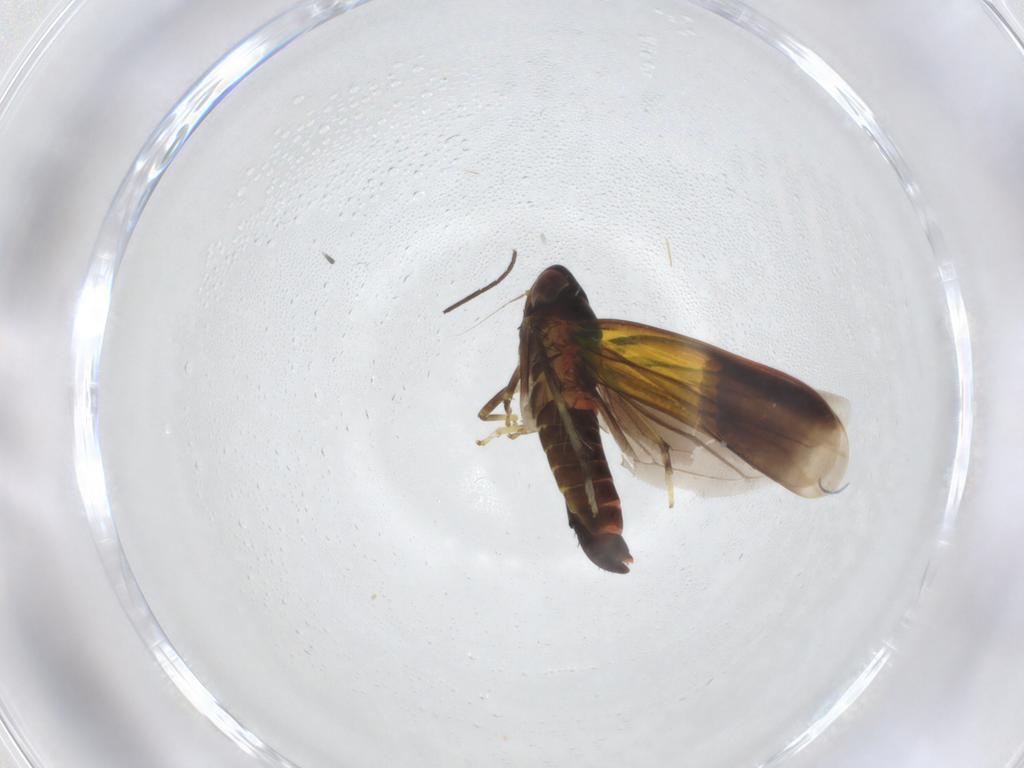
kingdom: Animalia
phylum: Arthropoda
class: Insecta
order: Hemiptera
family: Cicadellidae
